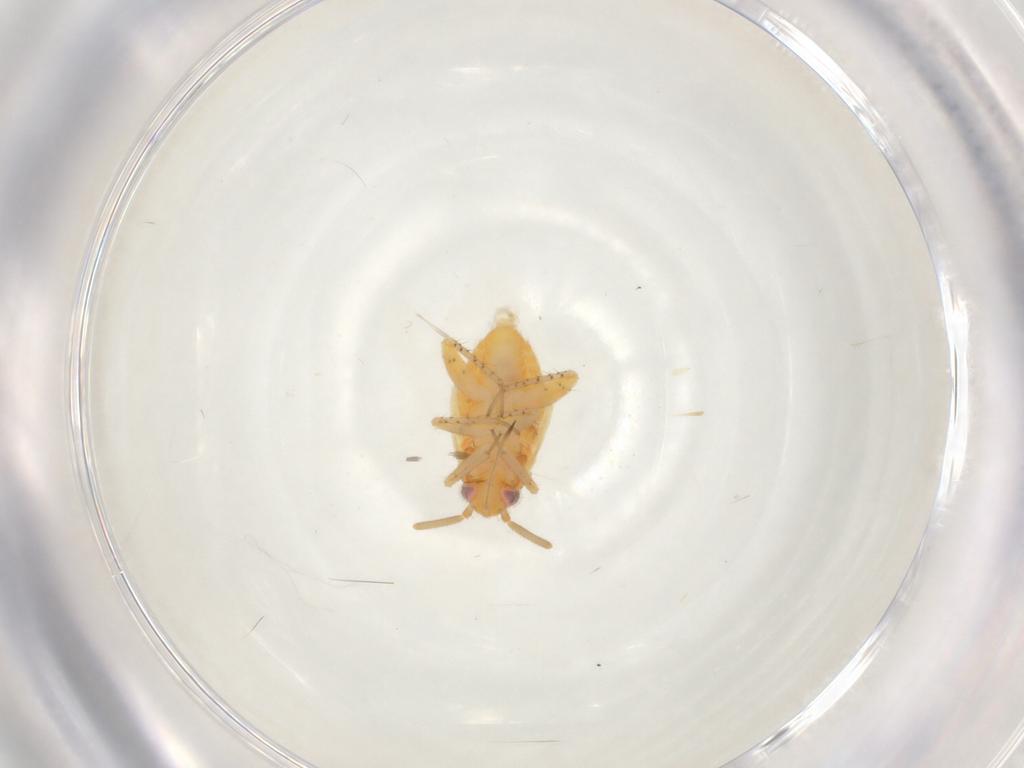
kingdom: Animalia
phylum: Arthropoda
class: Insecta
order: Hemiptera
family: Miridae
